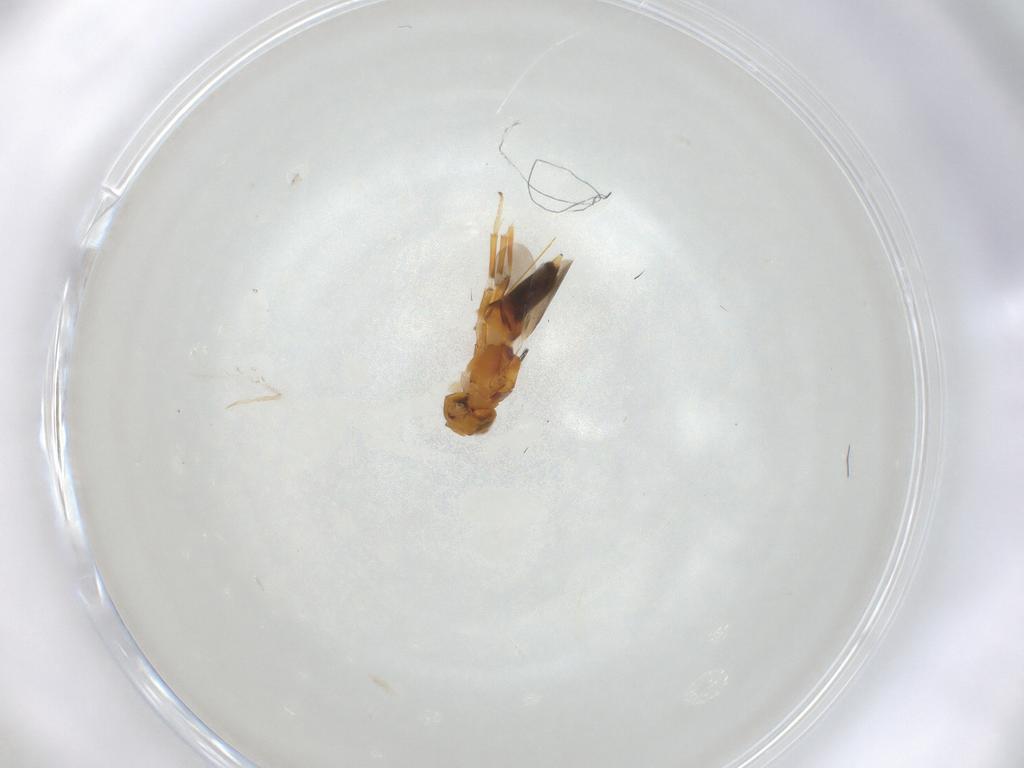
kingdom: Animalia
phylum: Arthropoda
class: Insecta
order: Hymenoptera
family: Encyrtidae
